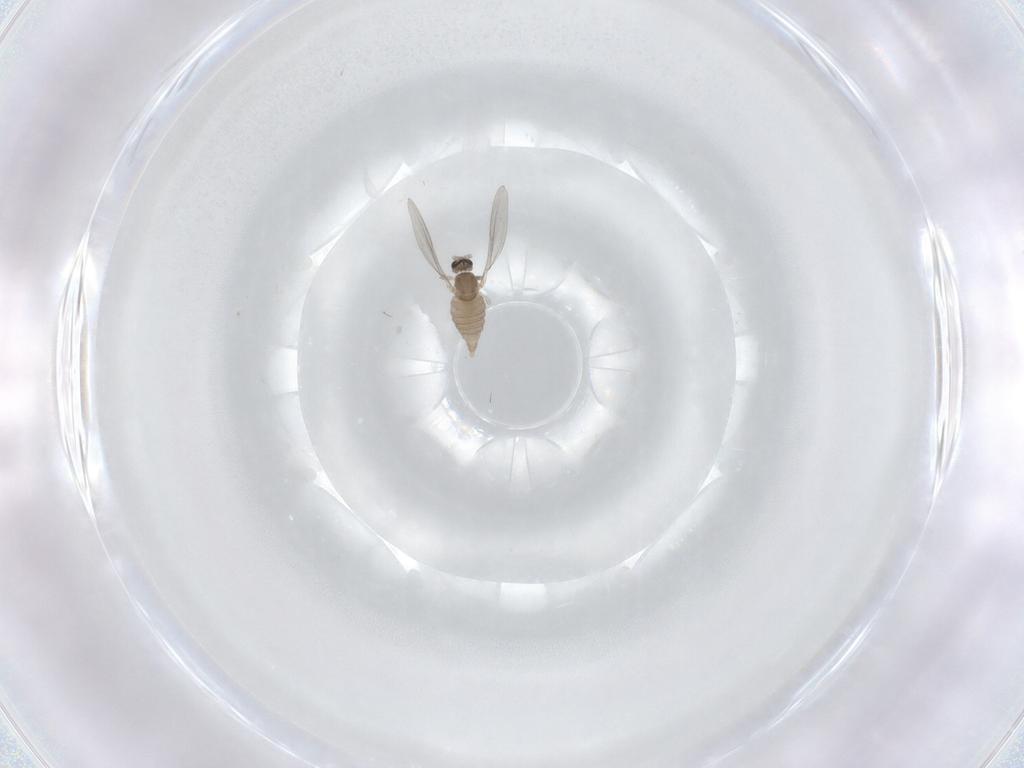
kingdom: Animalia
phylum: Arthropoda
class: Insecta
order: Diptera
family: Cecidomyiidae
